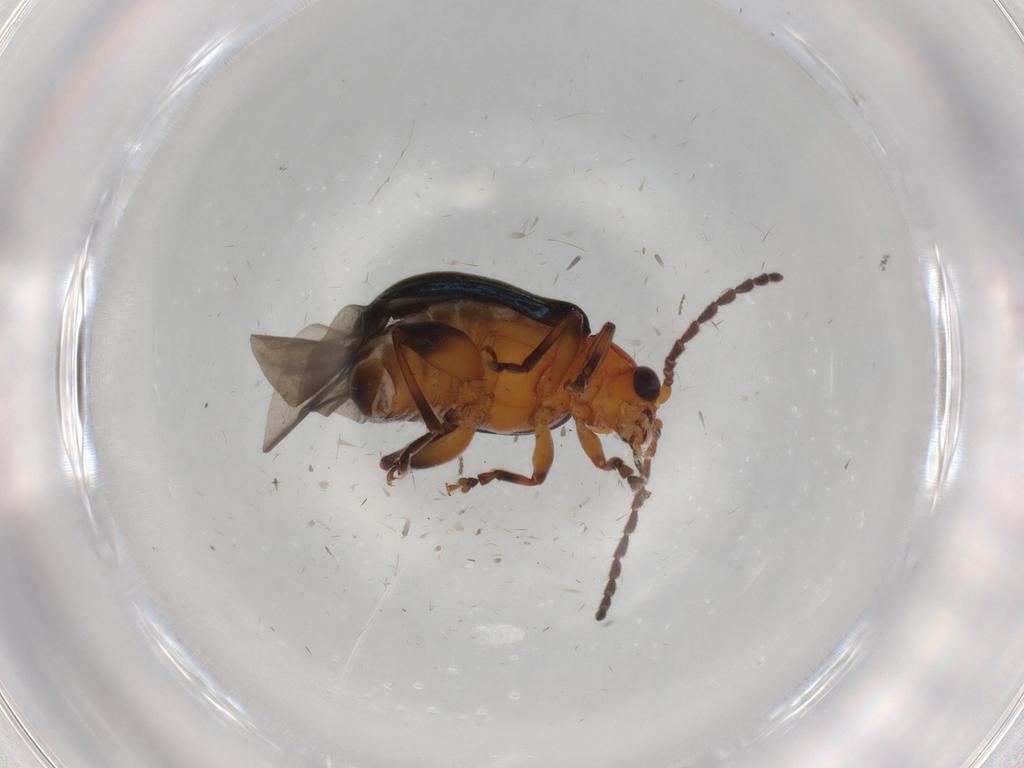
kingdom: Animalia
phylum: Arthropoda
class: Insecta
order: Coleoptera
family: Chrysomelidae
